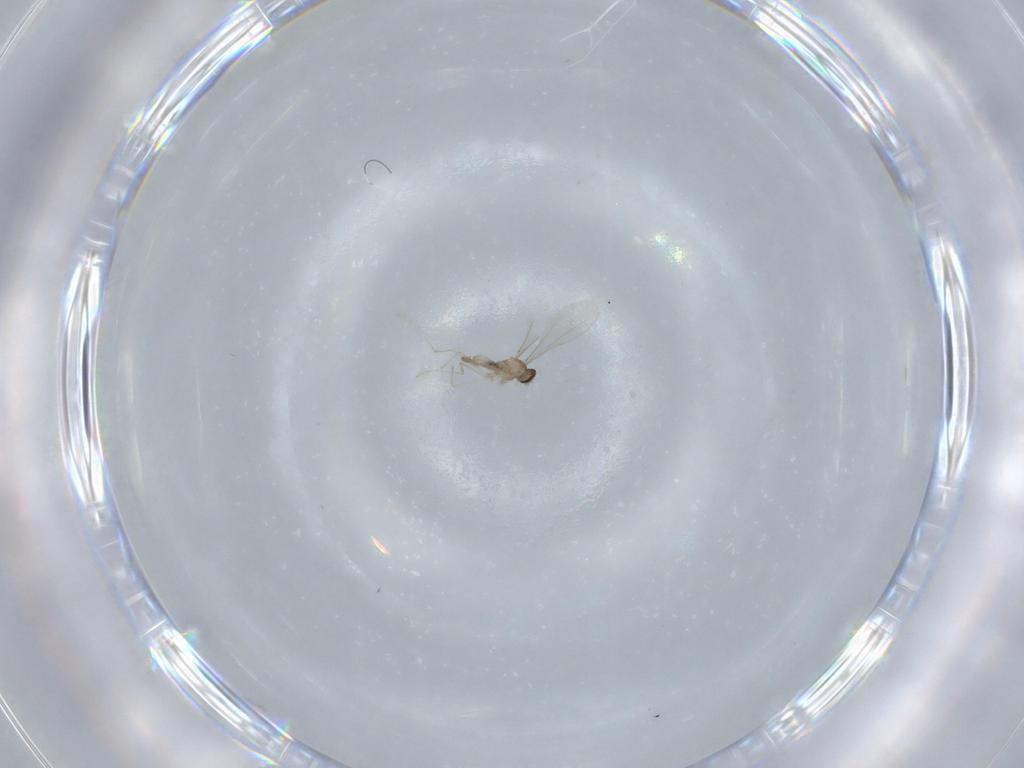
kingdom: Animalia
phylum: Arthropoda
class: Insecta
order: Diptera
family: Cecidomyiidae
